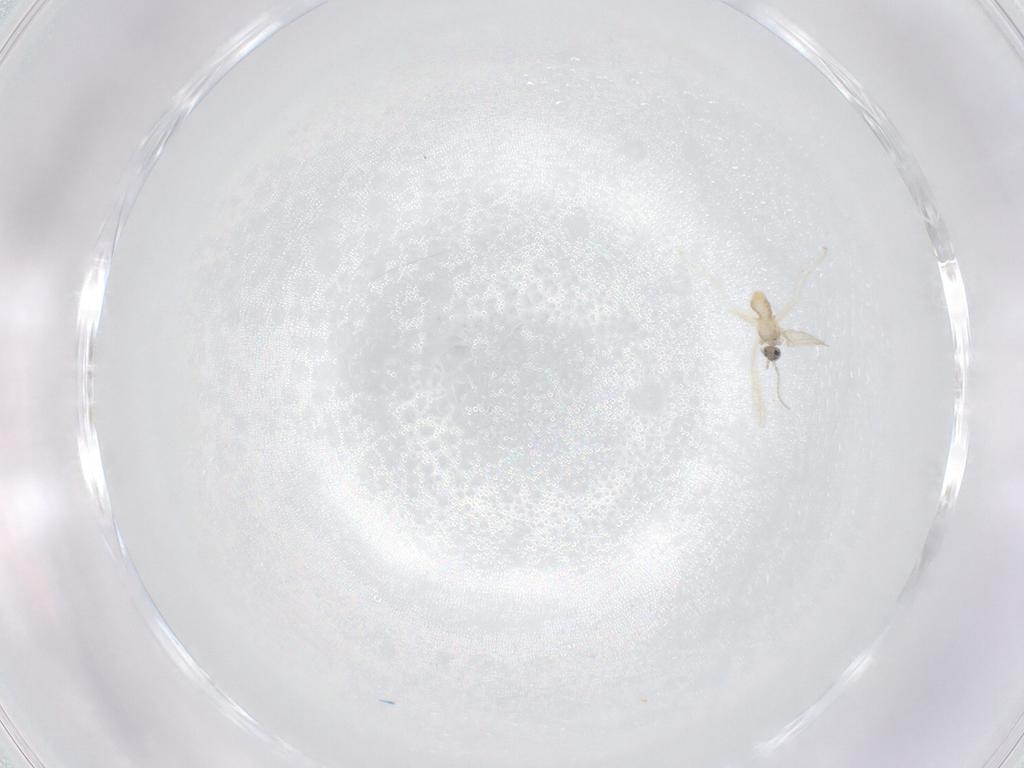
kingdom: Animalia
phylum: Arthropoda
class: Insecta
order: Diptera
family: Cecidomyiidae
